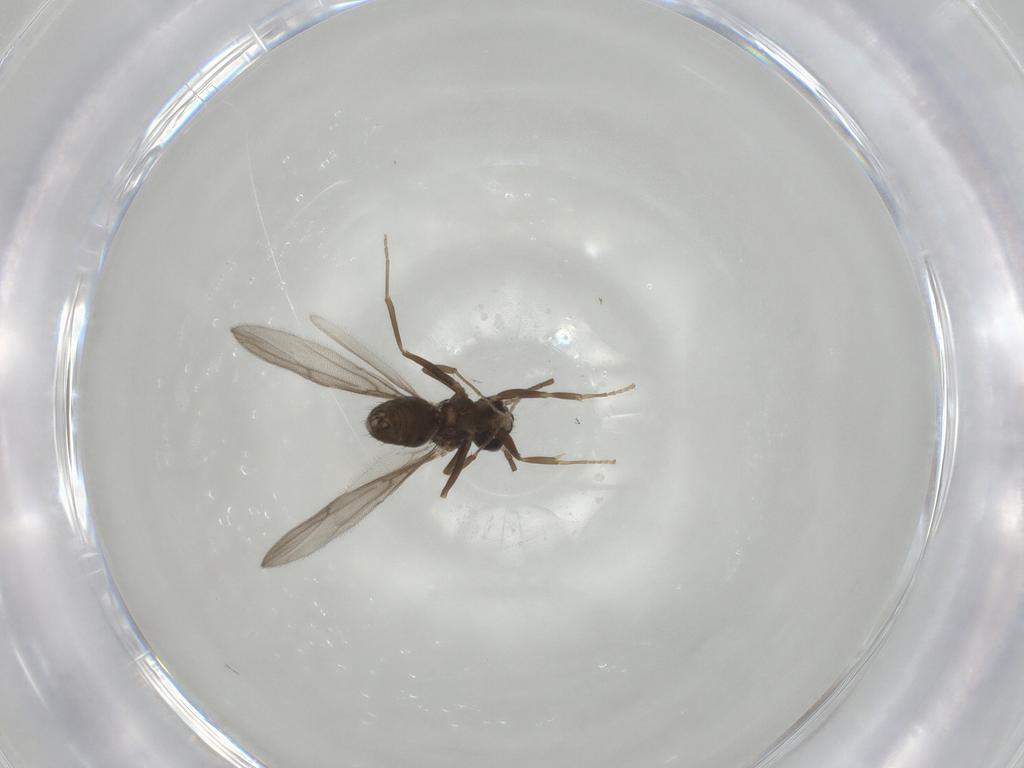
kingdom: Animalia
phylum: Arthropoda
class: Insecta
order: Hymenoptera
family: Formicidae
